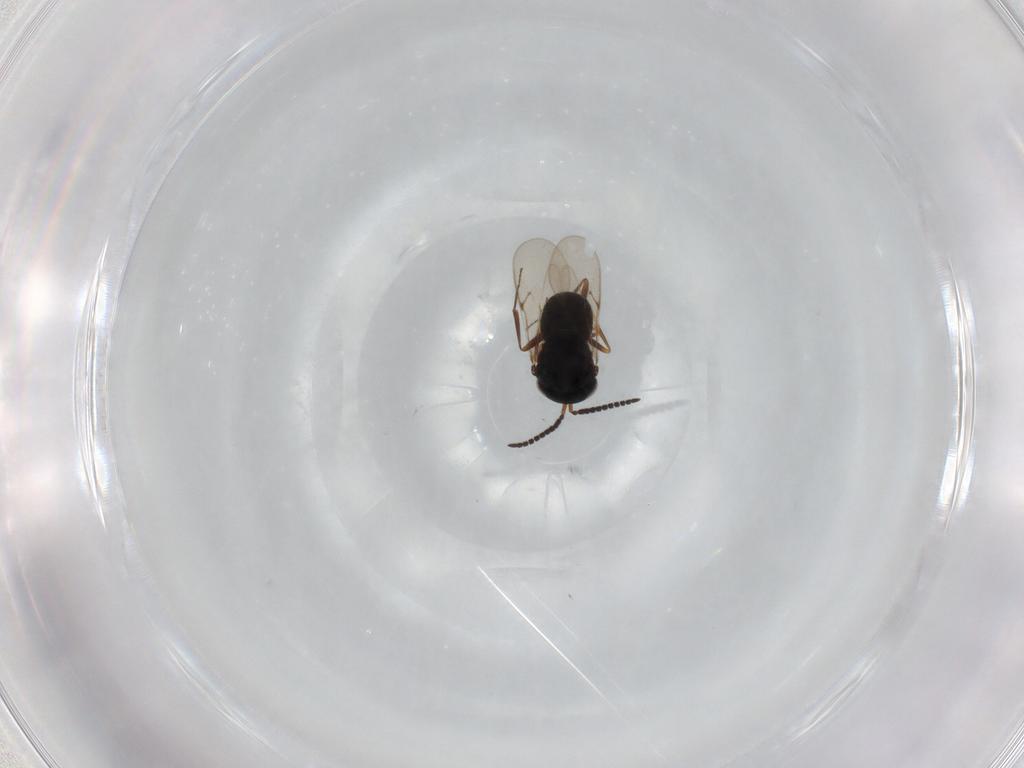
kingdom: Animalia
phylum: Arthropoda
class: Insecta
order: Hymenoptera
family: Scelionidae
